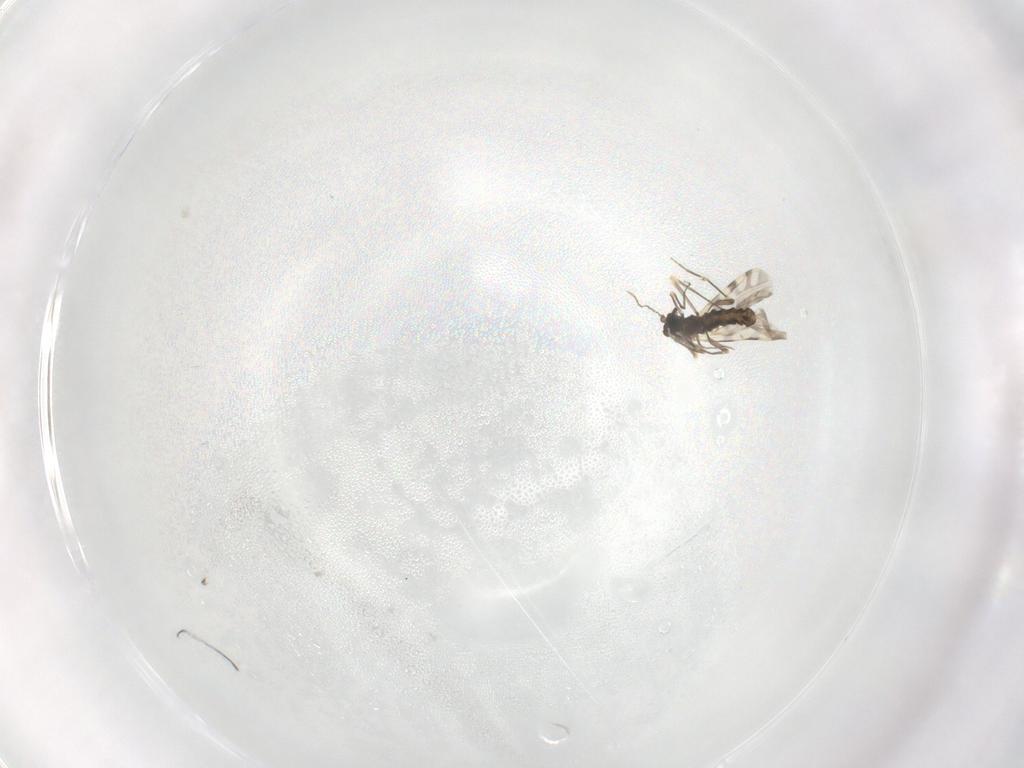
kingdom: Animalia
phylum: Arthropoda
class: Insecta
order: Diptera
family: Ceratopogonidae
